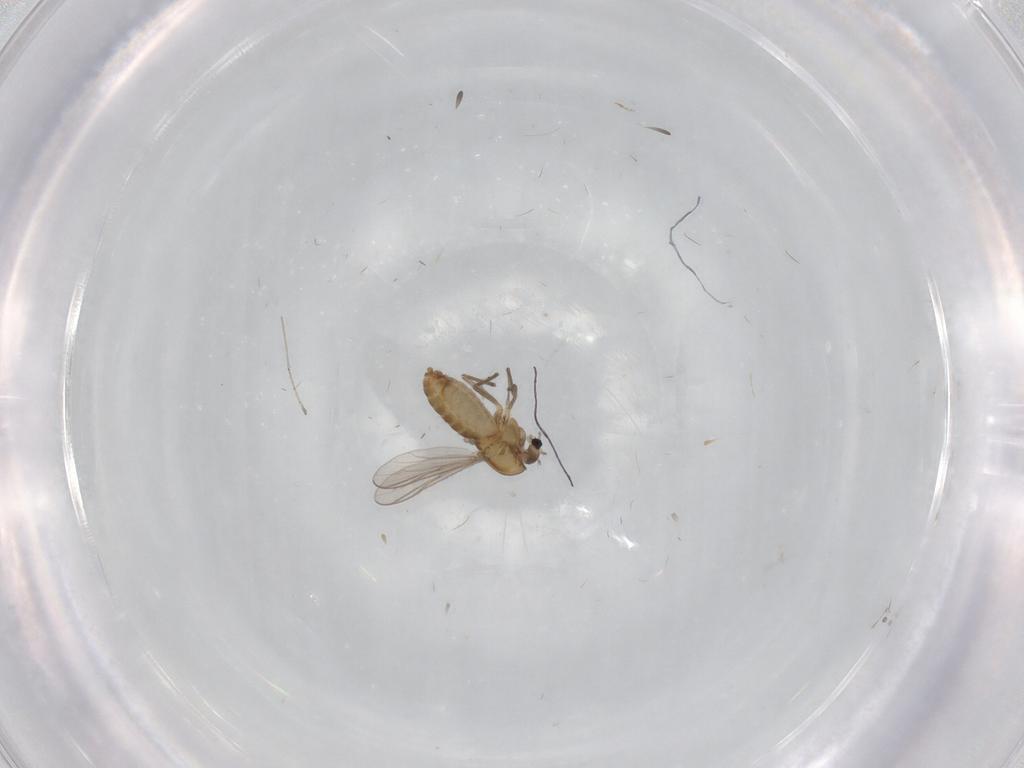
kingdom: Animalia
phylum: Arthropoda
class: Insecta
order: Diptera
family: Chironomidae
